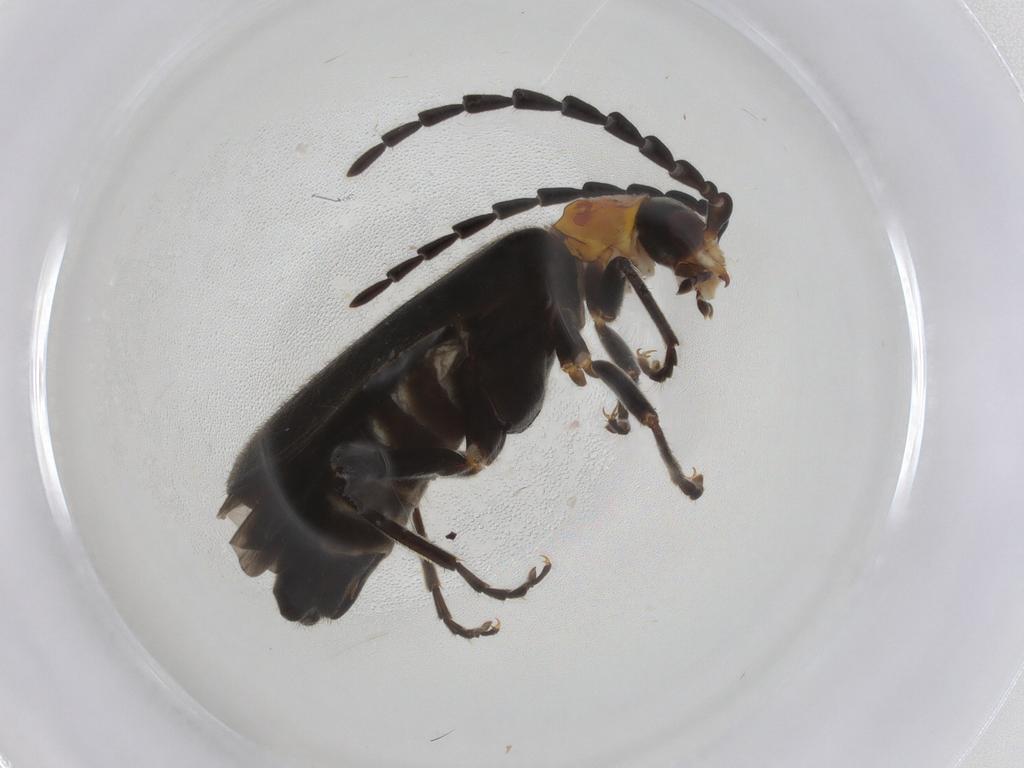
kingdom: Animalia
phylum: Arthropoda
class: Insecta
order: Coleoptera
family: Cantharidae
